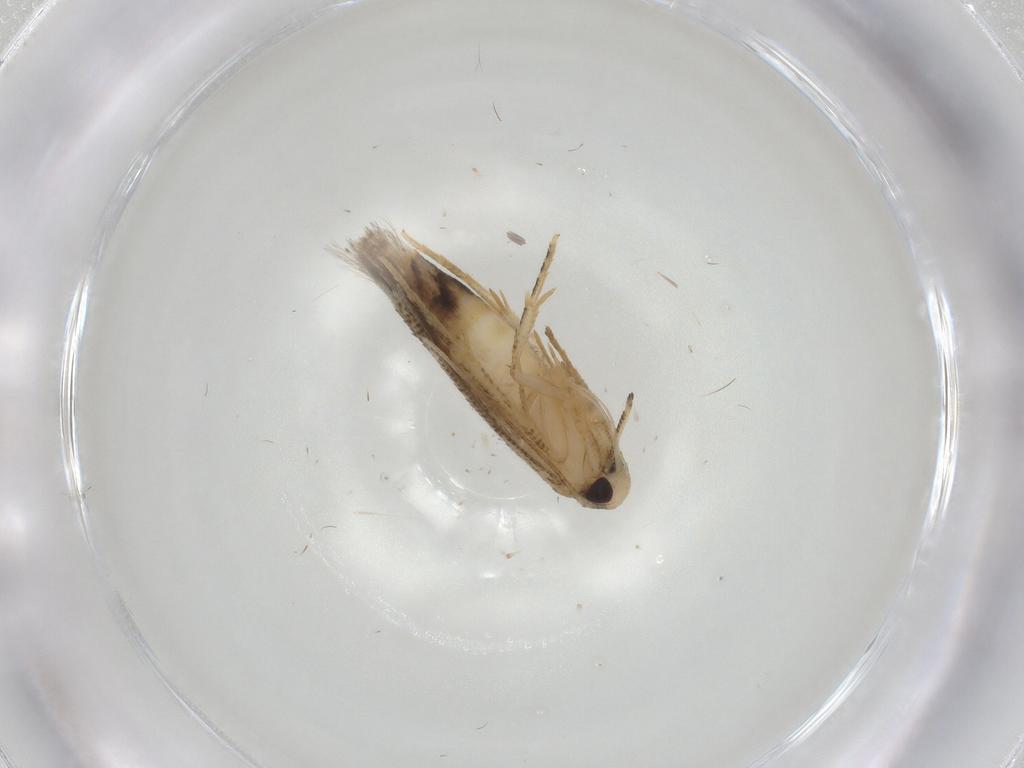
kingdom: Animalia
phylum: Arthropoda
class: Insecta
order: Lepidoptera
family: Cosmopterigidae
